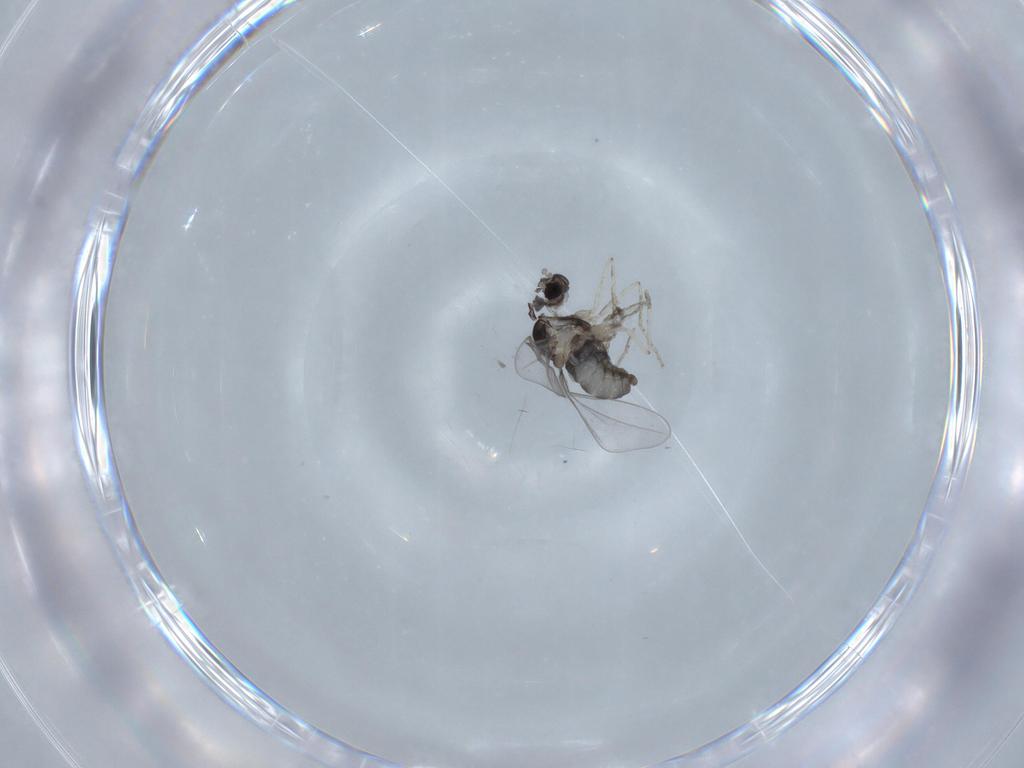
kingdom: Animalia
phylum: Arthropoda
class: Insecta
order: Diptera
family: Cecidomyiidae
